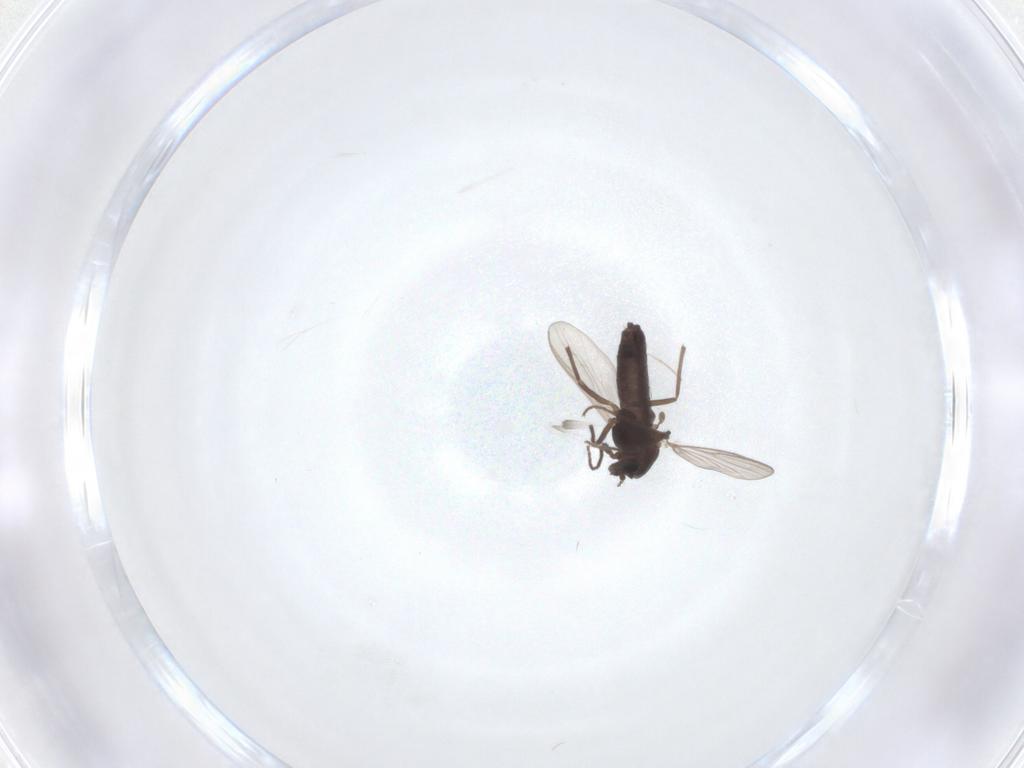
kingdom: Animalia
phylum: Arthropoda
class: Insecta
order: Diptera
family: Chironomidae
